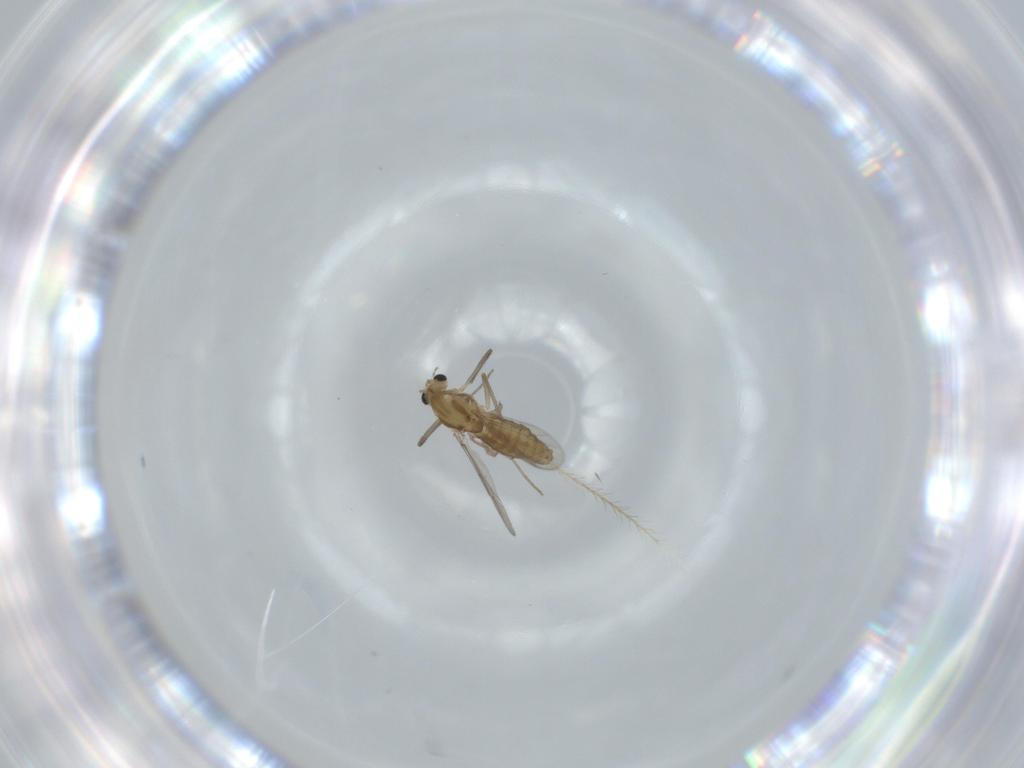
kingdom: Animalia
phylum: Arthropoda
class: Insecta
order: Diptera
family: Chironomidae
